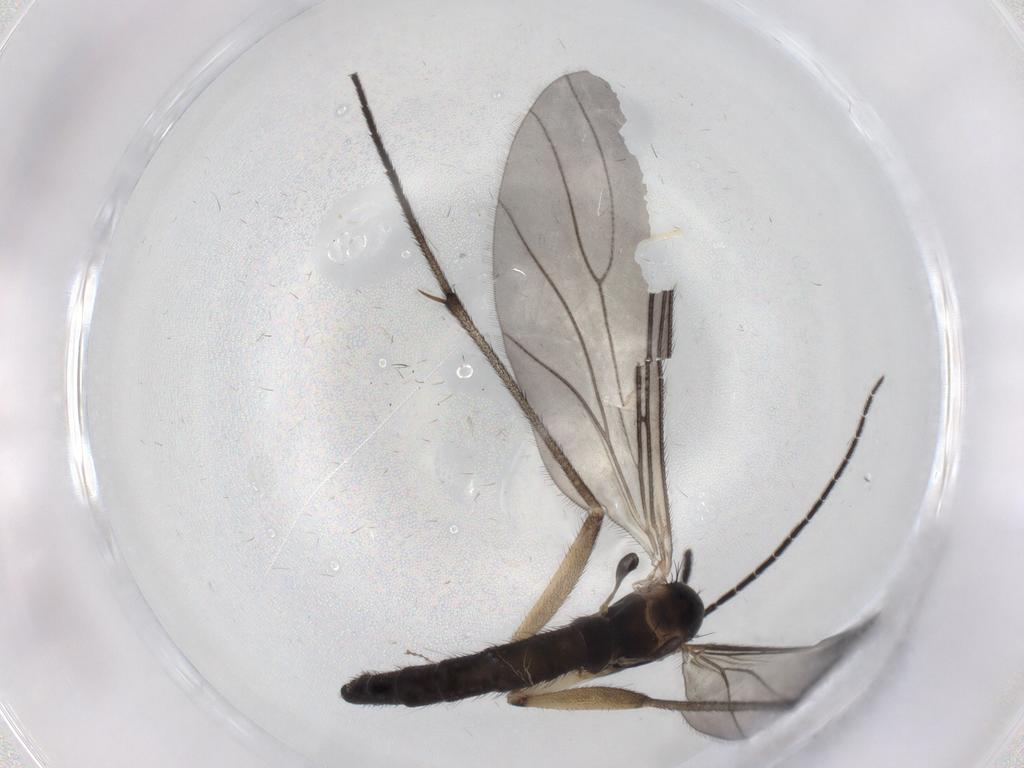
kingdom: Animalia
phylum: Arthropoda
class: Insecta
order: Diptera
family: Sciaridae
